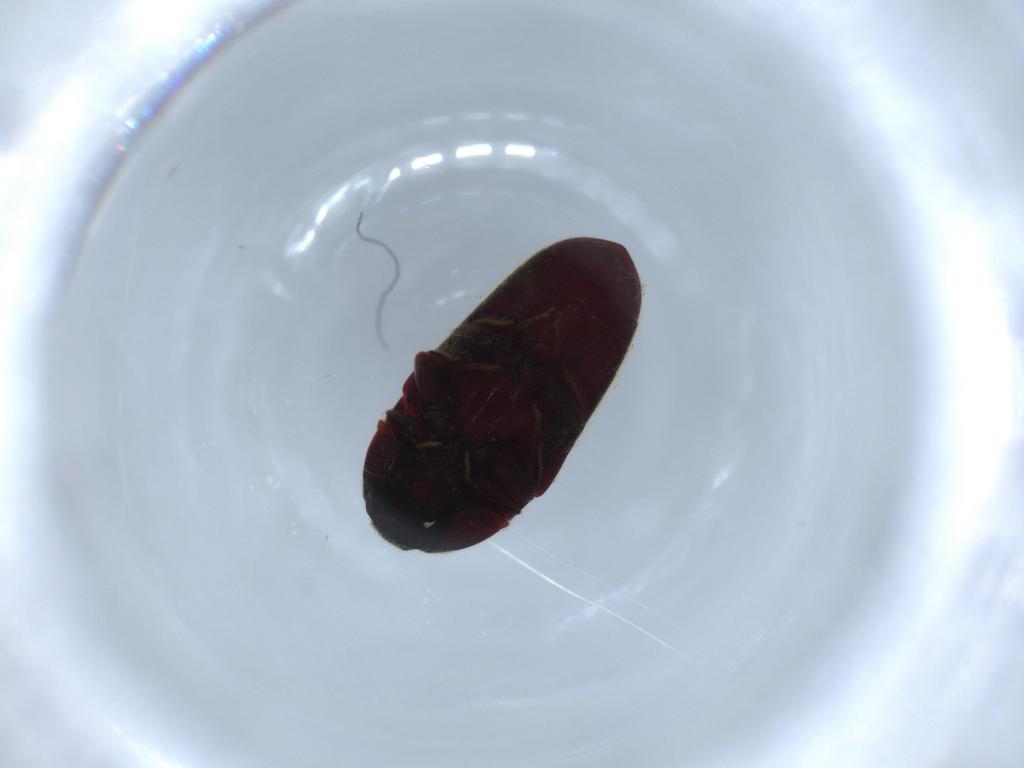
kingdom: Animalia
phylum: Arthropoda
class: Insecta
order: Coleoptera
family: Throscidae
